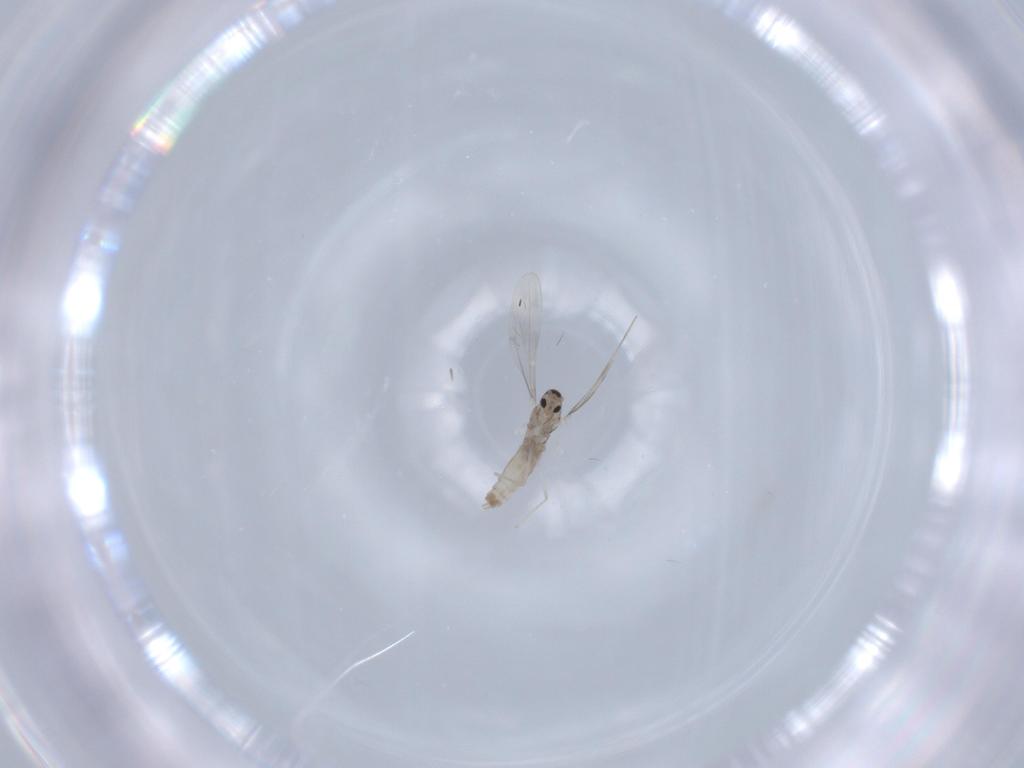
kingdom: Animalia
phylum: Arthropoda
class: Insecta
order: Diptera
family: Cecidomyiidae
